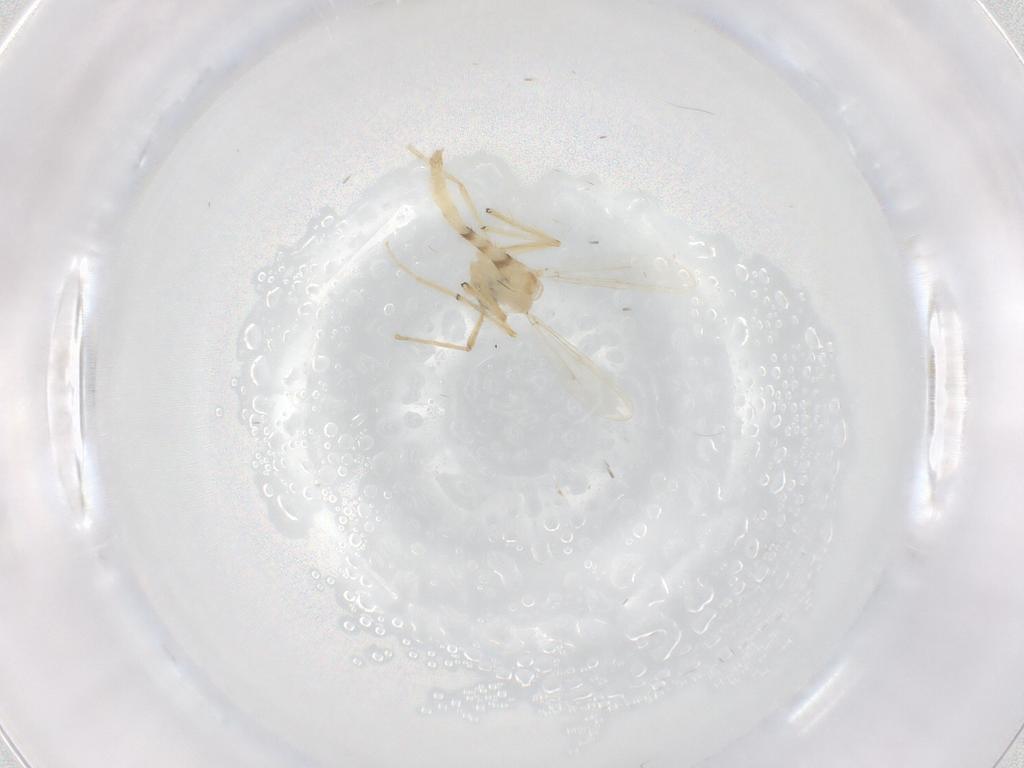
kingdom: Animalia
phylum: Arthropoda
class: Insecta
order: Diptera
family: Chironomidae
